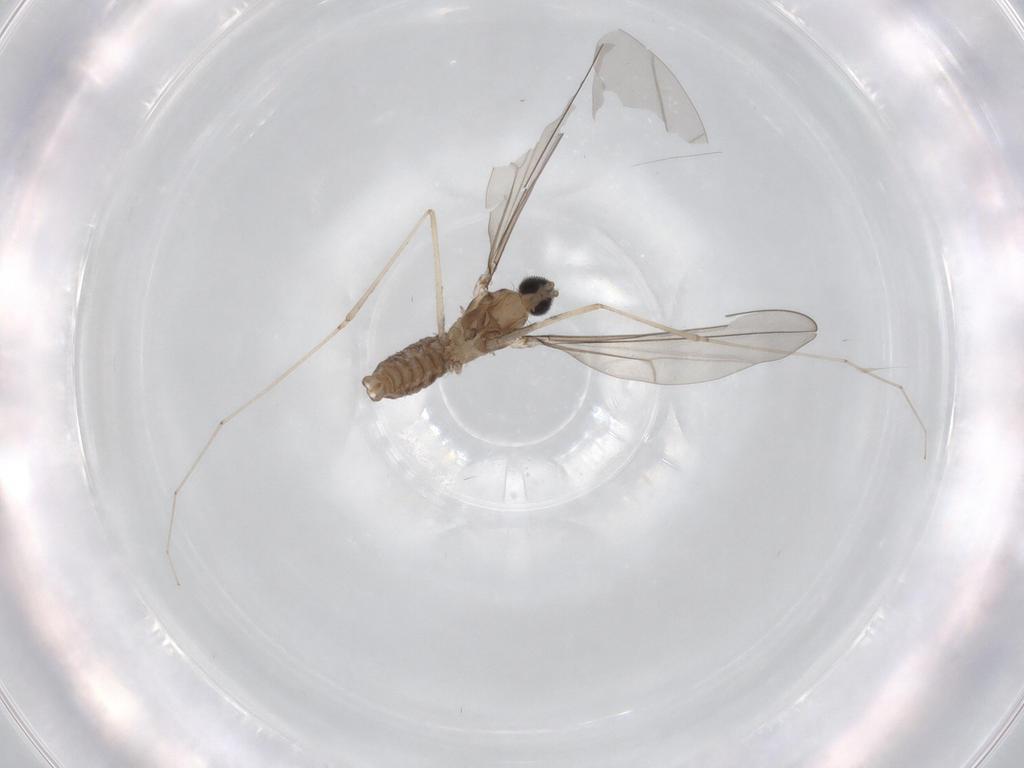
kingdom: Animalia
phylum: Arthropoda
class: Insecta
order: Diptera
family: Cecidomyiidae
